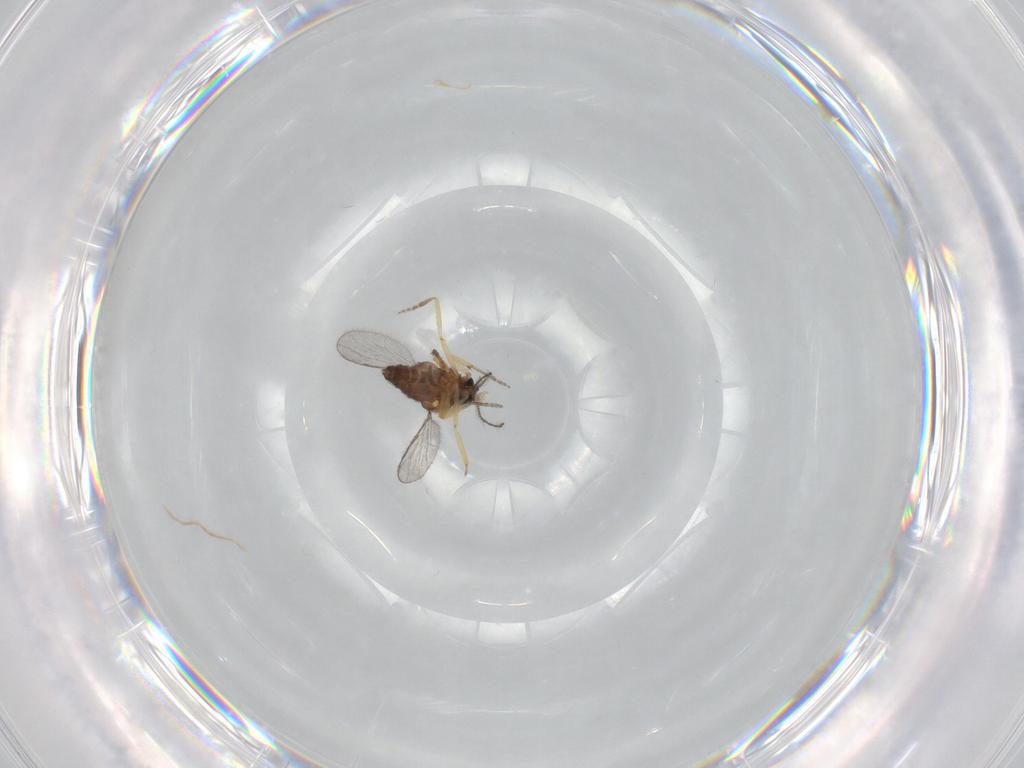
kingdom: Animalia
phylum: Arthropoda
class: Insecta
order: Diptera
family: Ceratopogonidae
